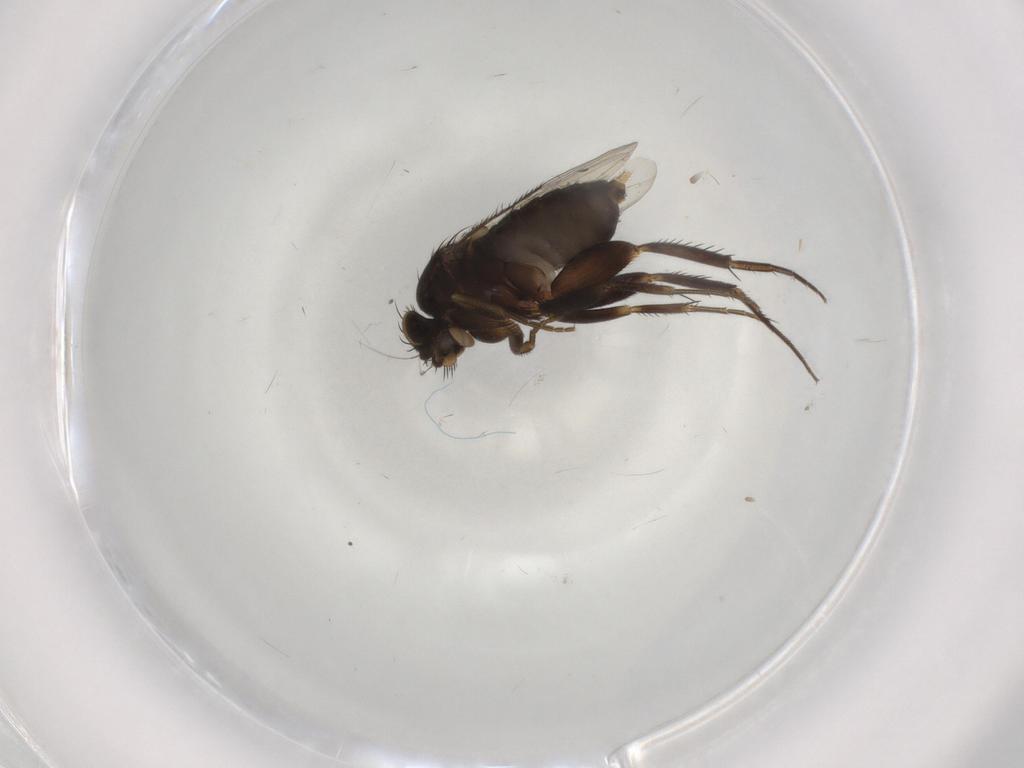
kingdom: Animalia
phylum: Arthropoda
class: Insecta
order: Diptera
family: Phoridae
